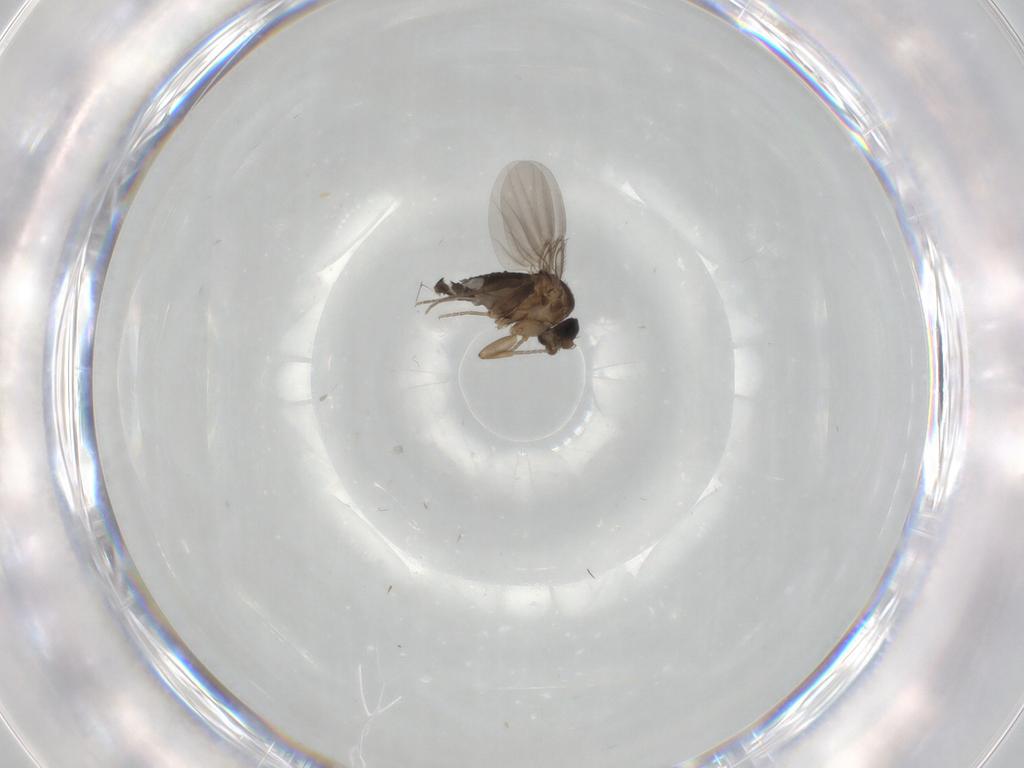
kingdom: Animalia
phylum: Arthropoda
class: Insecta
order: Diptera
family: Phoridae
